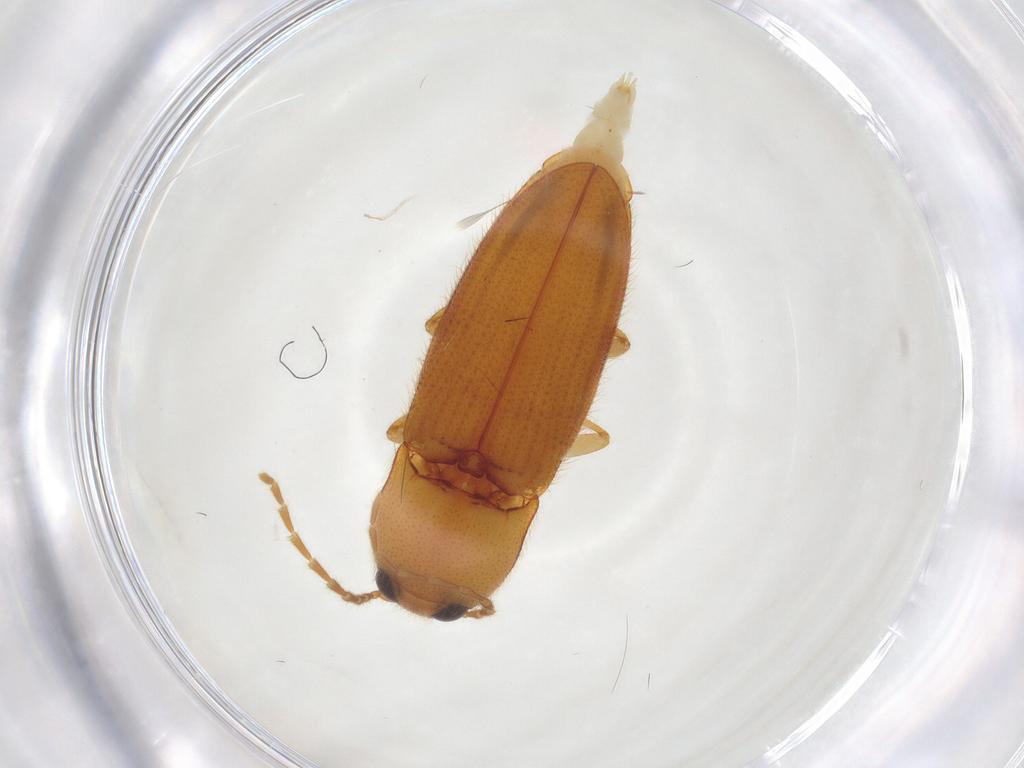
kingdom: Animalia
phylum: Arthropoda
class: Insecta
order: Coleoptera
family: Elateridae
